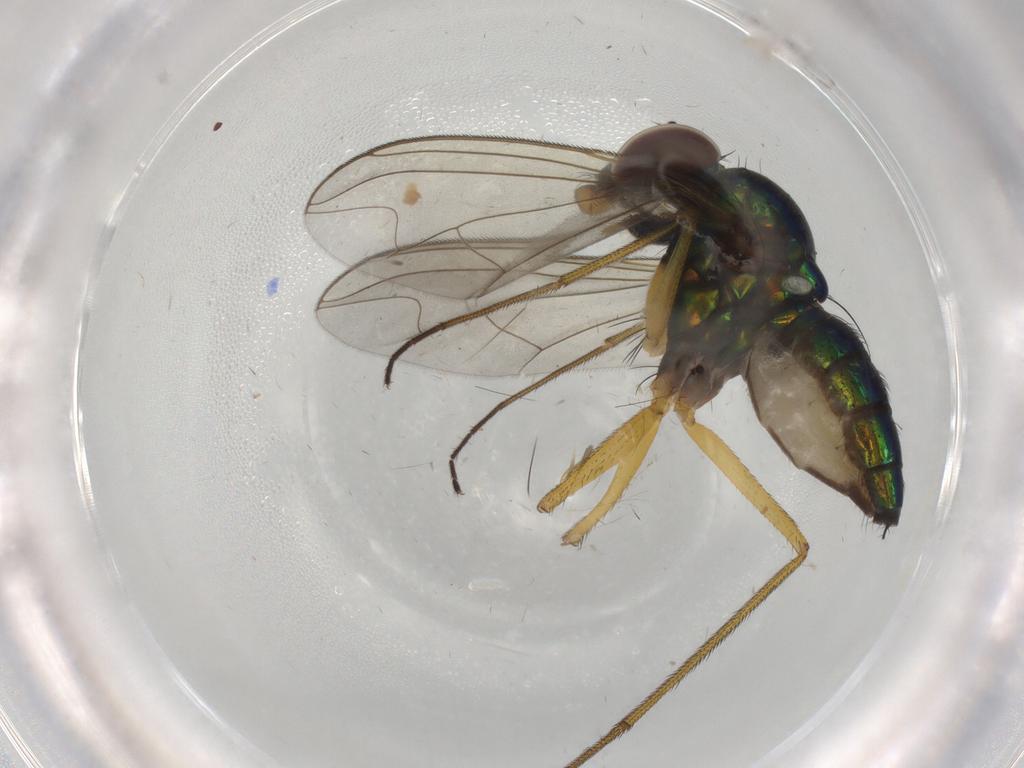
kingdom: Animalia
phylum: Arthropoda
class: Insecta
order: Diptera
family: Dolichopodidae
